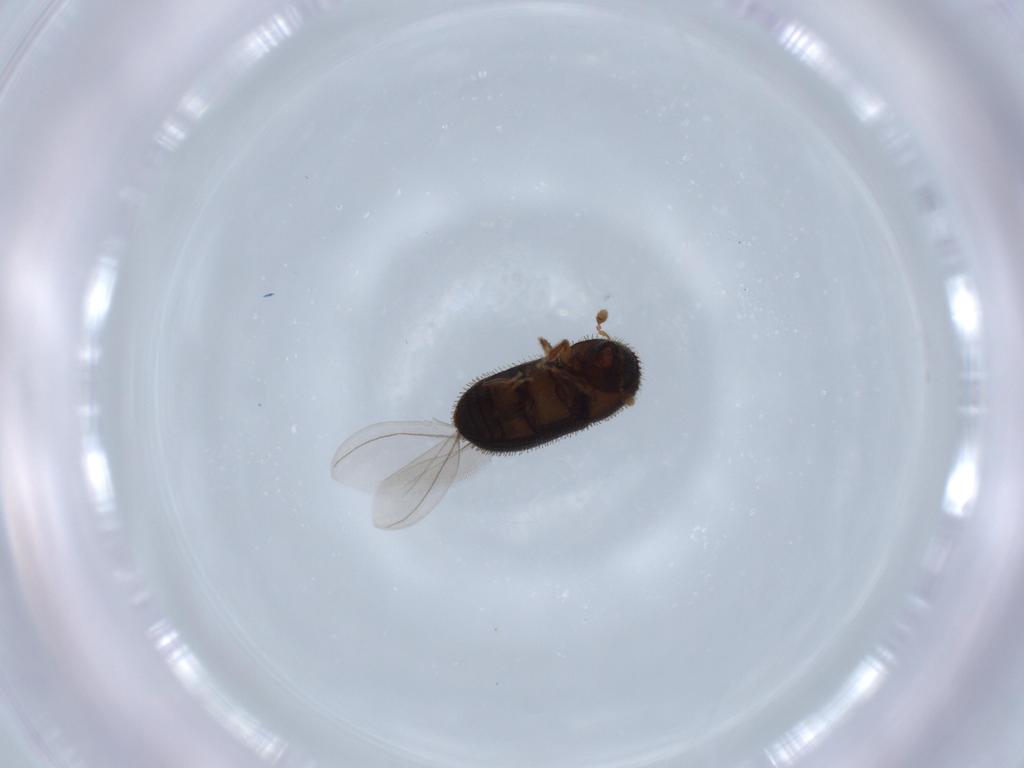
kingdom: Animalia
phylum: Arthropoda
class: Insecta
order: Coleoptera
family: Curculionidae
